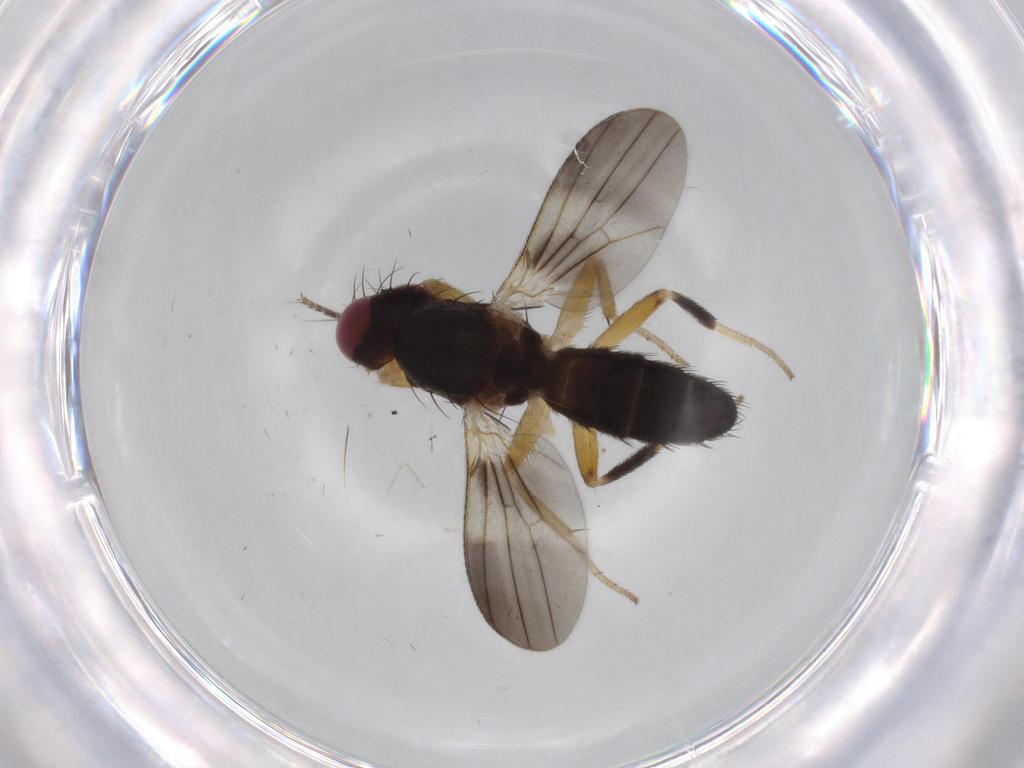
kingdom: Animalia
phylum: Arthropoda
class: Insecta
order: Diptera
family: Clusiidae
